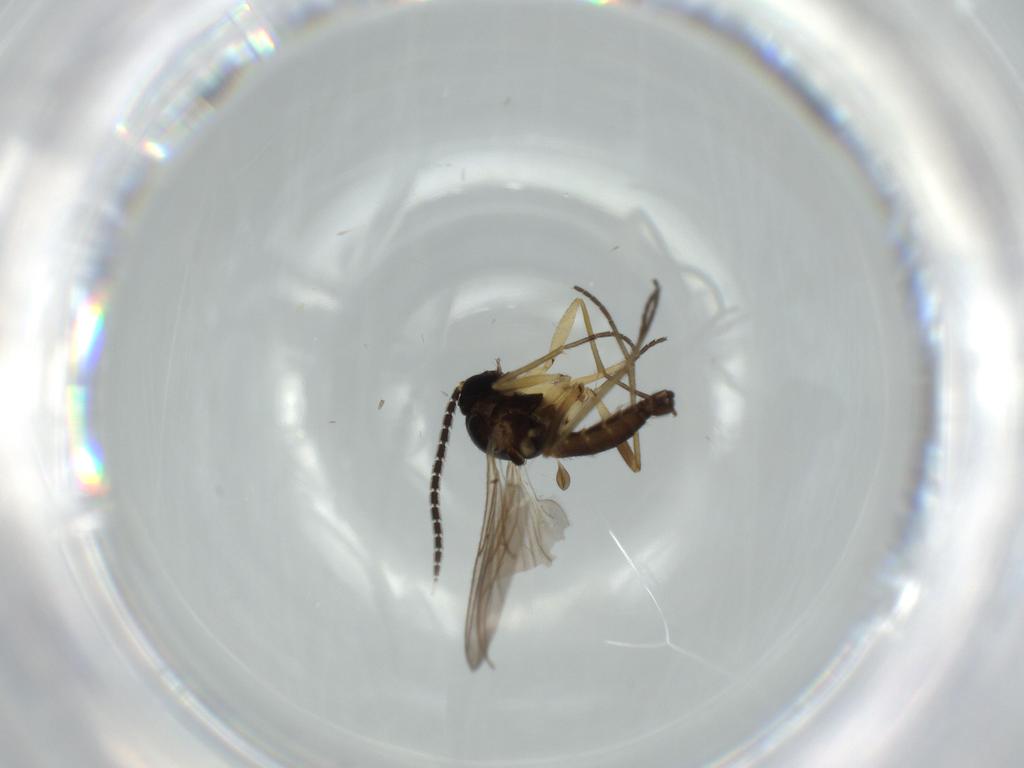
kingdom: Animalia
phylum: Arthropoda
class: Insecta
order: Diptera
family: Sciaridae
